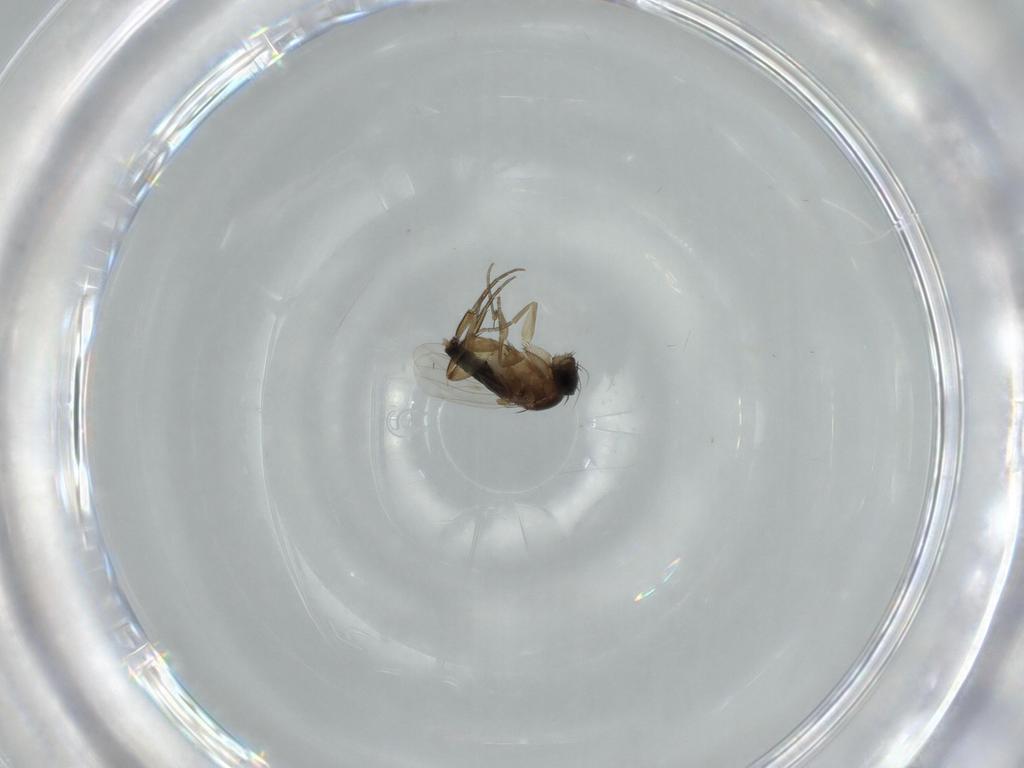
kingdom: Animalia
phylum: Arthropoda
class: Insecta
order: Diptera
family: Phoridae
